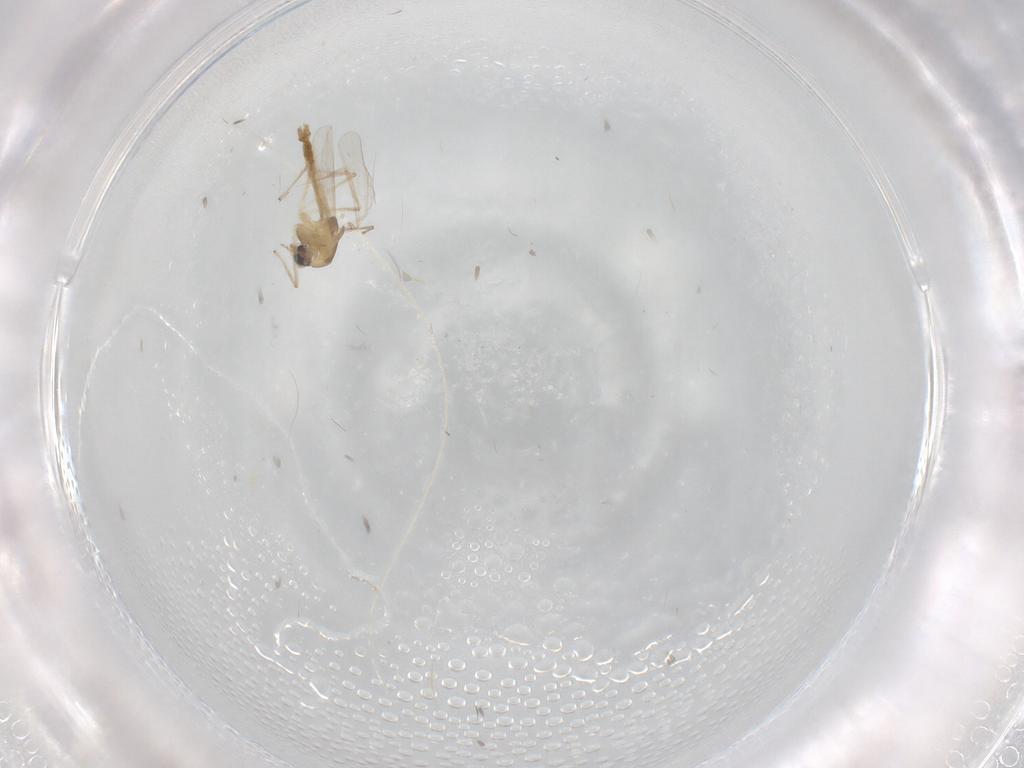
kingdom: Animalia
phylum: Arthropoda
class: Insecta
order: Diptera
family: Chironomidae
